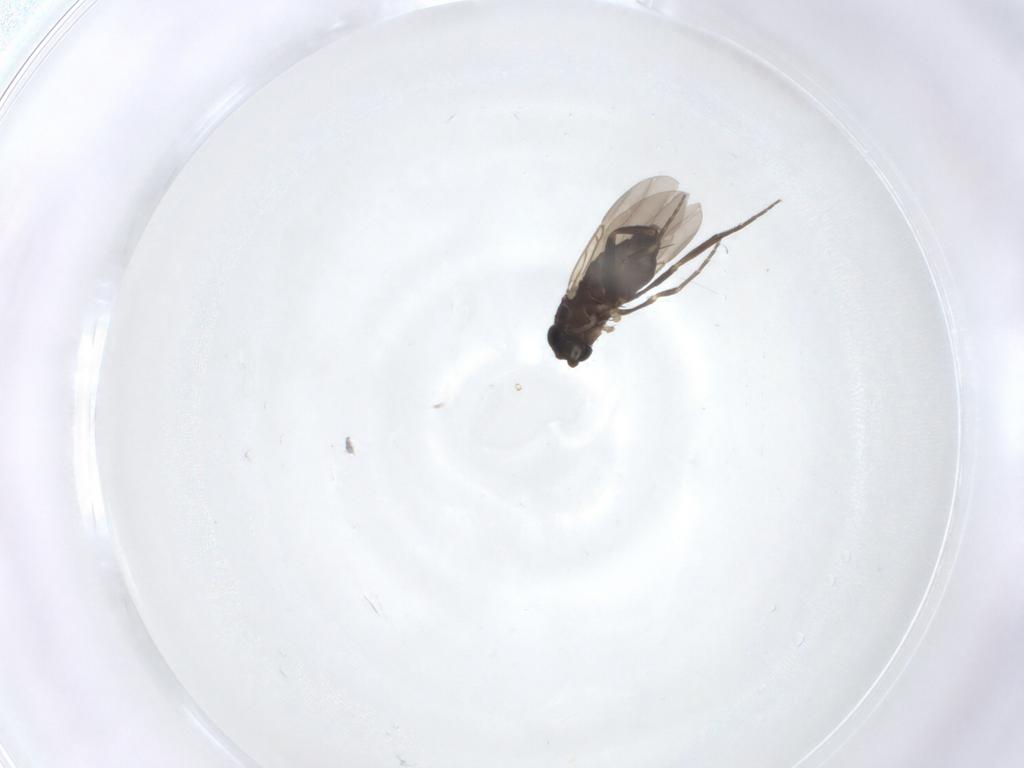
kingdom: Animalia
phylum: Arthropoda
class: Insecta
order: Diptera
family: Phoridae
